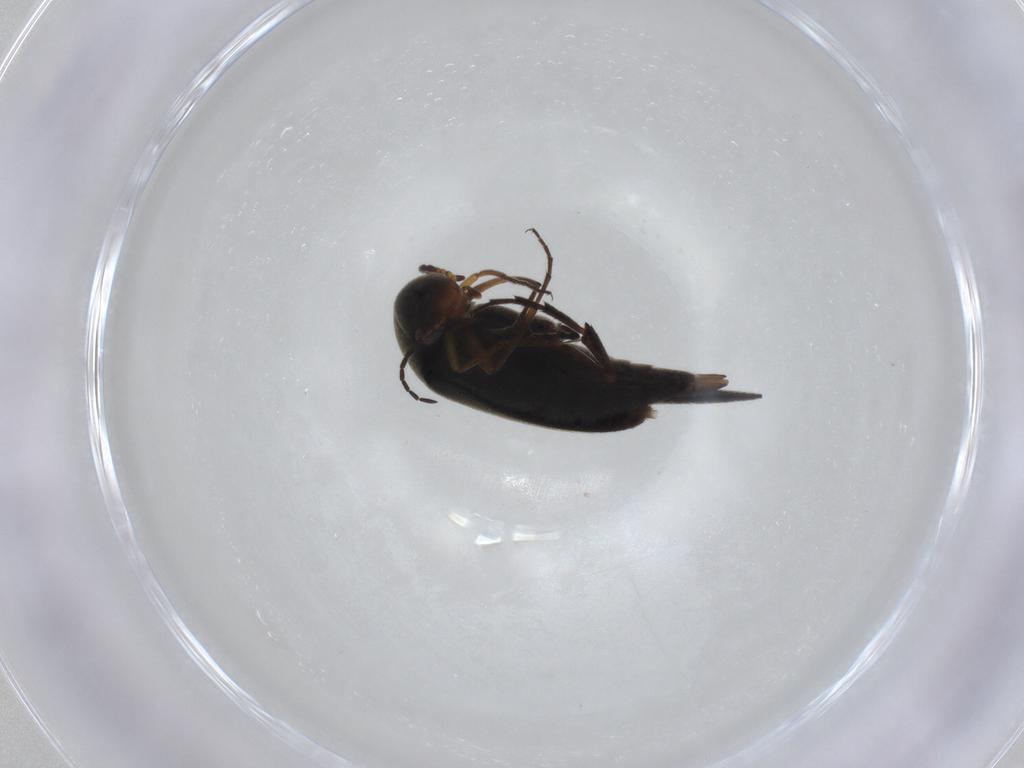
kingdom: Animalia
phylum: Arthropoda
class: Insecta
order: Coleoptera
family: Mordellidae
